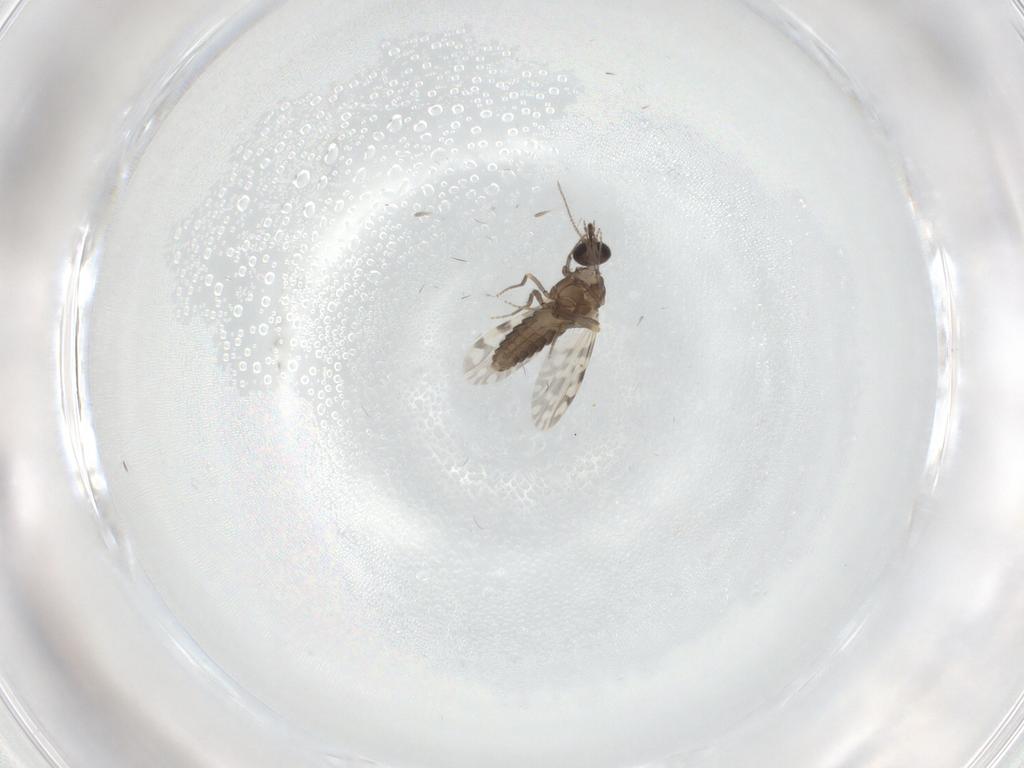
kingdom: Animalia
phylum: Arthropoda
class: Insecta
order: Diptera
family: Ceratopogonidae
